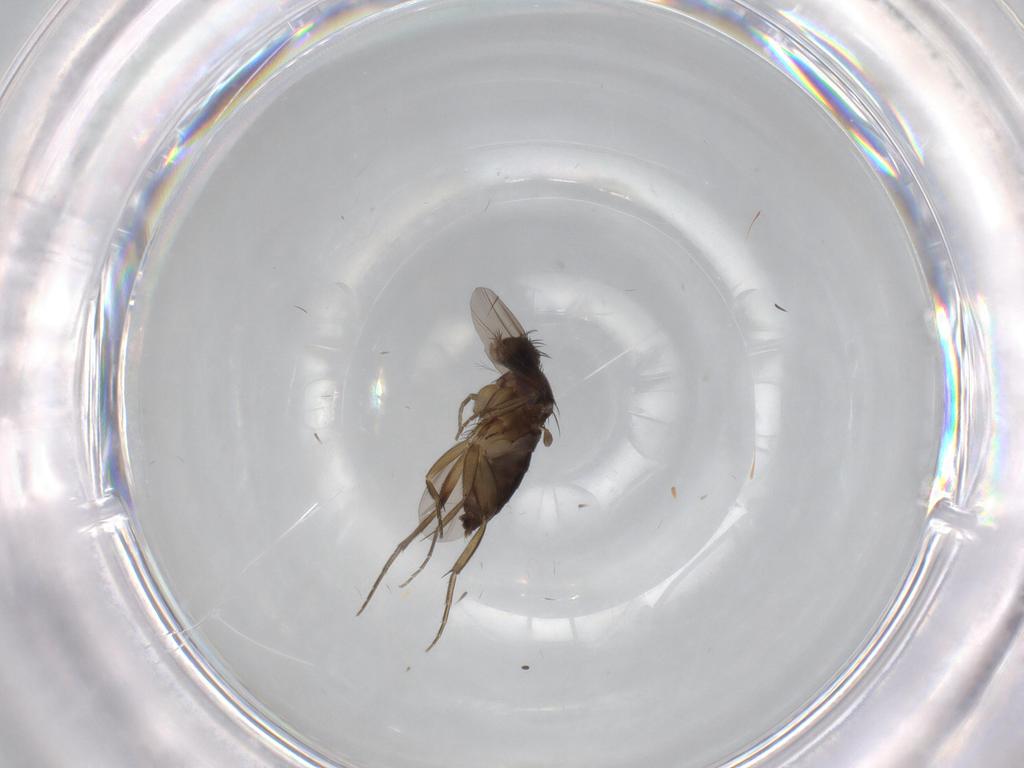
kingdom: Animalia
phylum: Arthropoda
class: Insecta
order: Diptera
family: Phoridae
